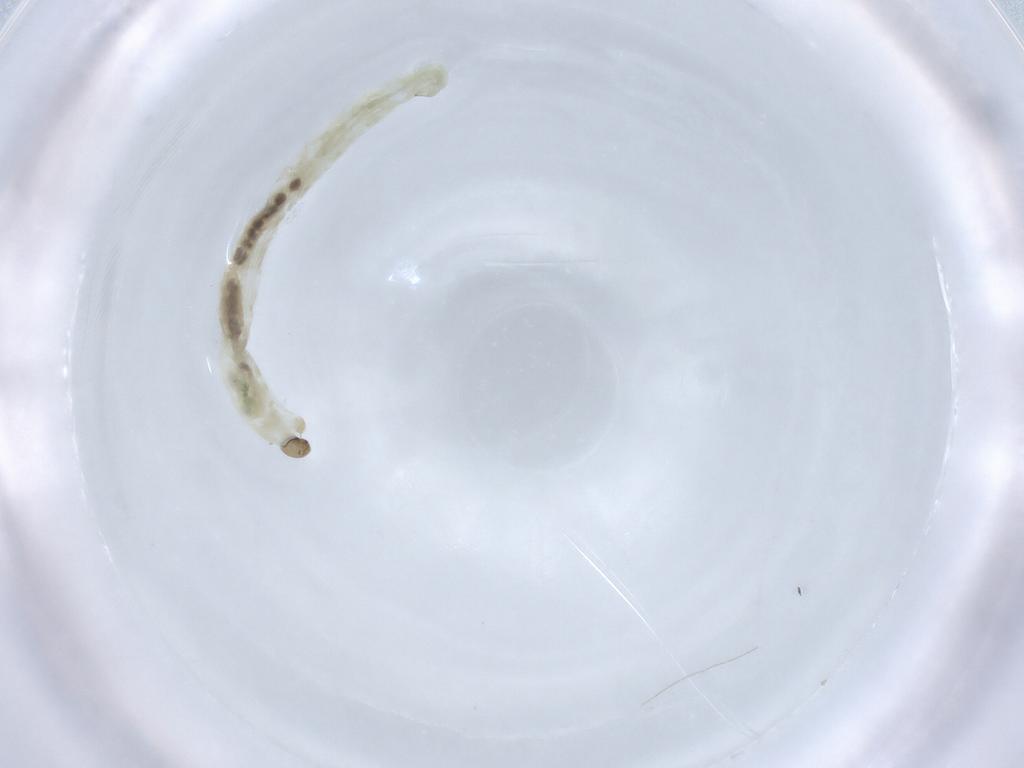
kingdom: Animalia
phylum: Arthropoda
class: Insecta
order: Diptera
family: Chironomidae
